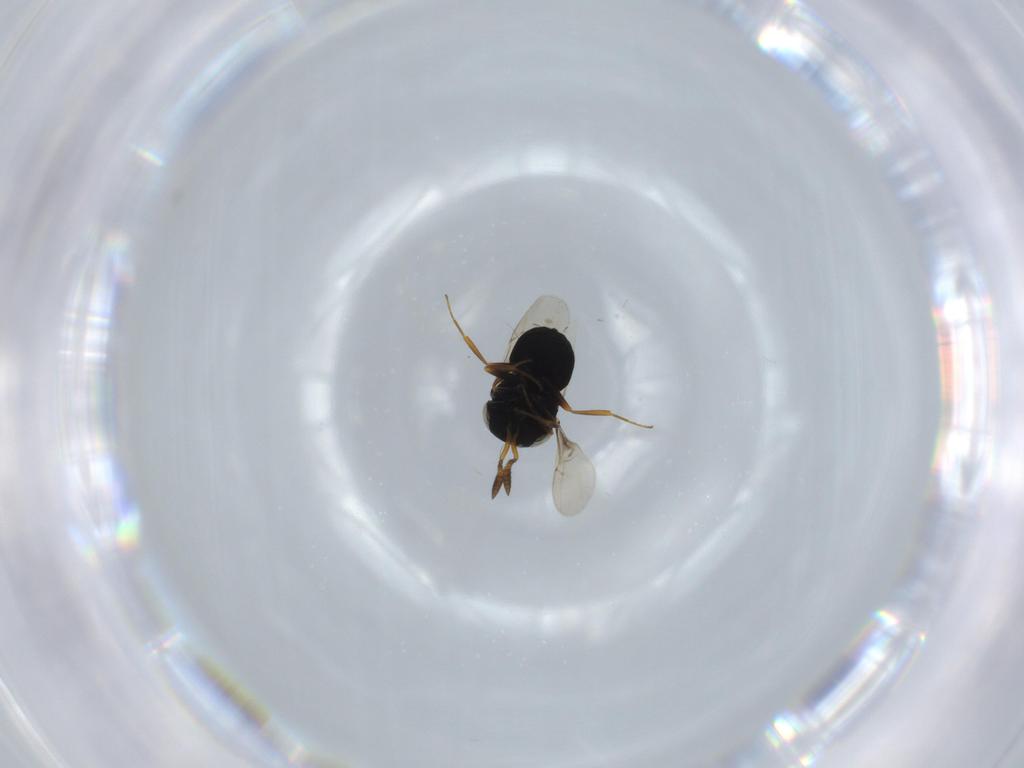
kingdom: Animalia
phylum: Arthropoda
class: Insecta
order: Hymenoptera
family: Scelionidae
